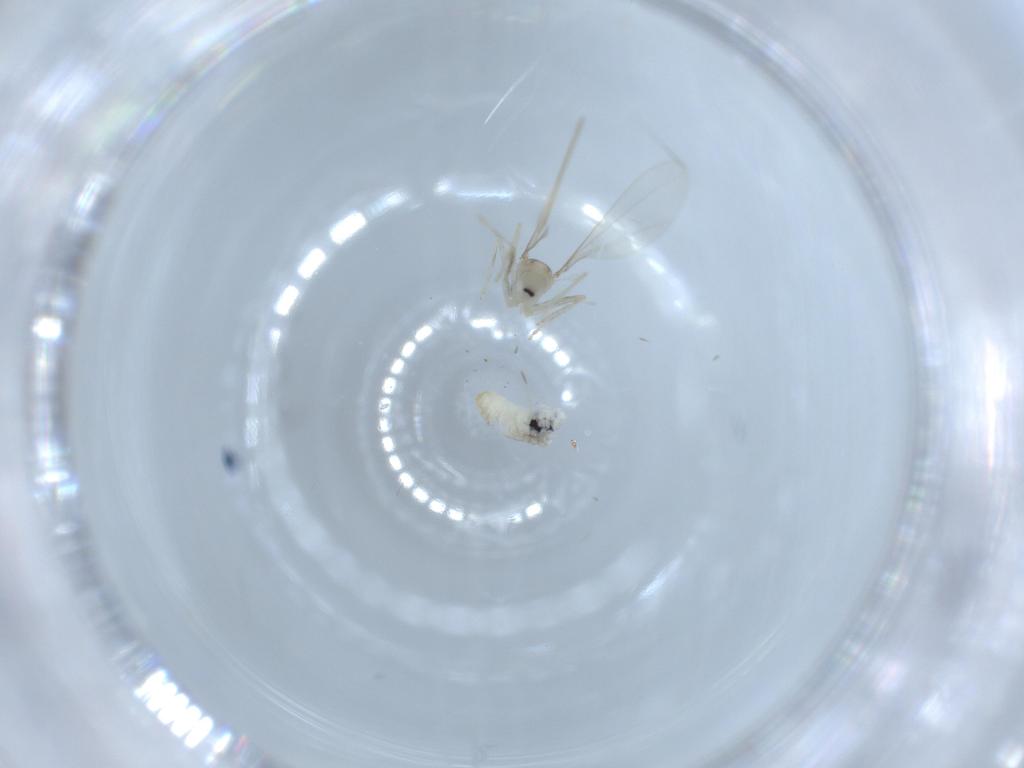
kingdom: Animalia
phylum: Arthropoda
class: Insecta
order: Diptera
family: Cecidomyiidae
